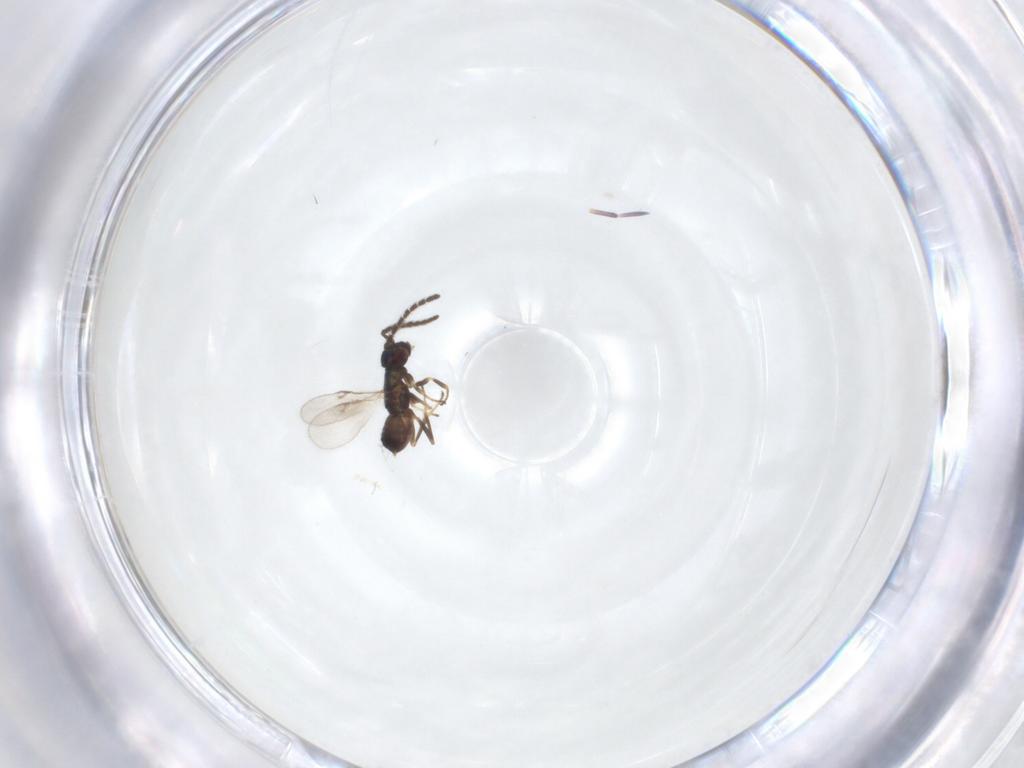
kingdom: Animalia
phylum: Arthropoda
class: Insecta
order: Hymenoptera
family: Encyrtidae
